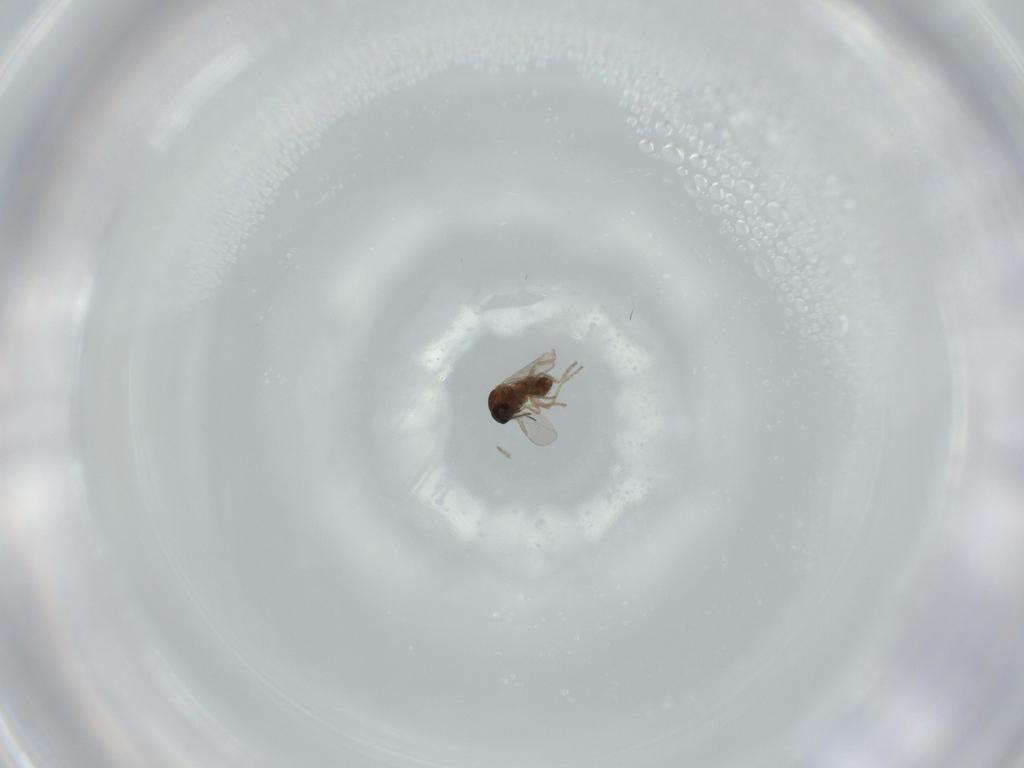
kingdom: Animalia
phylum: Arthropoda
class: Insecta
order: Diptera
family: Ceratopogonidae
